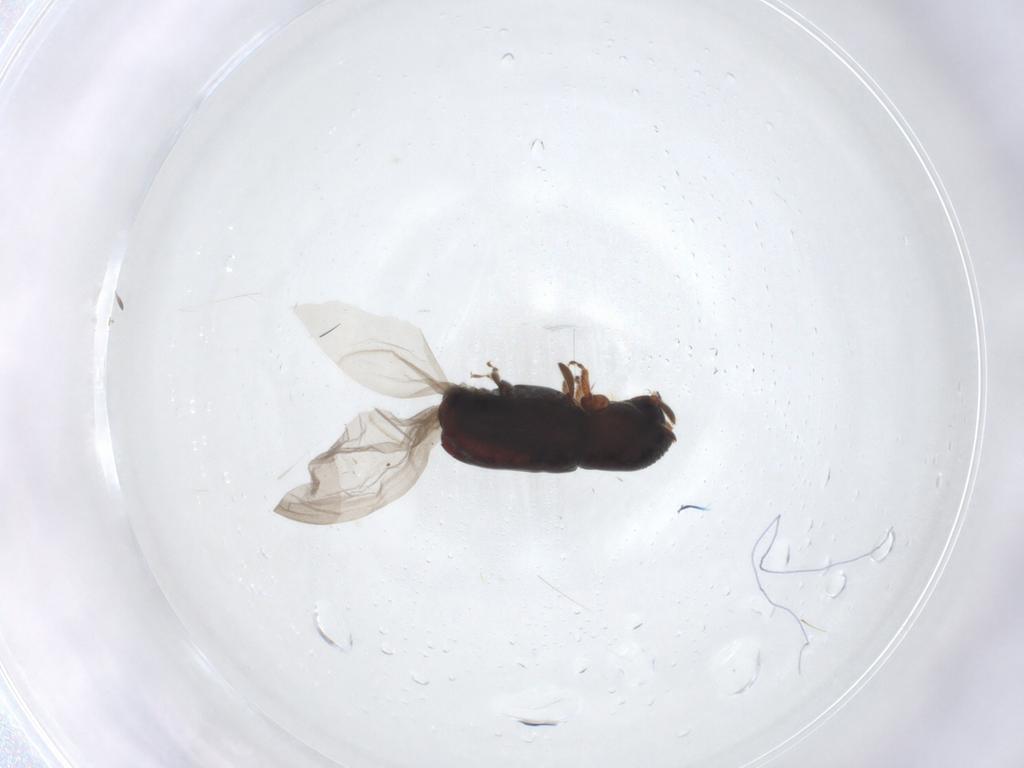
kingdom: Animalia
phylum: Arthropoda
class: Insecta
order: Coleoptera
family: Curculionidae
